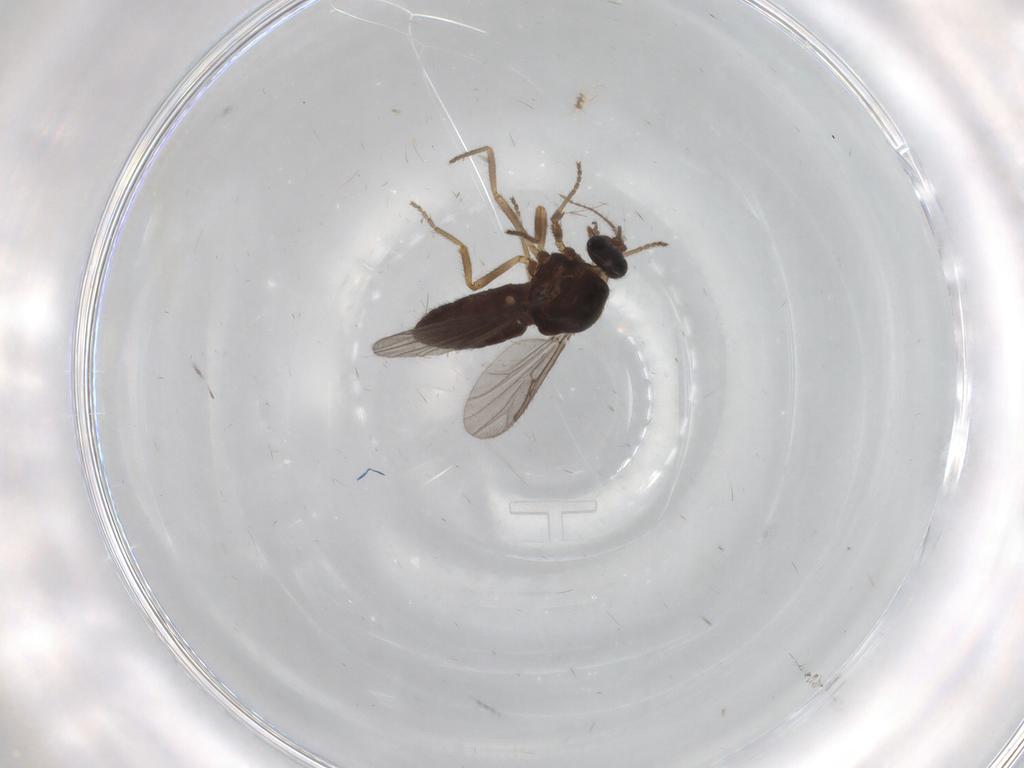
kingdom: Animalia
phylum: Arthropoda
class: Insecta
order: Diptera
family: Ceratopogonidae
